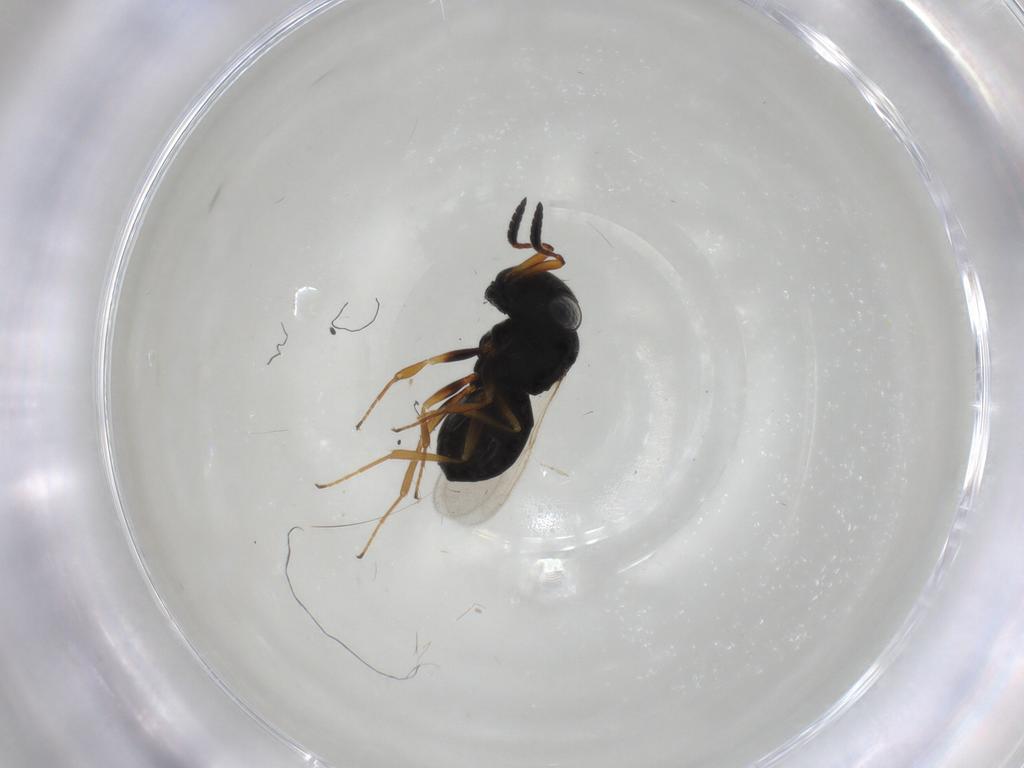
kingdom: Animalia
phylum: Arthropoda
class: Insecta
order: Hymenoptera
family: Scelionidae
